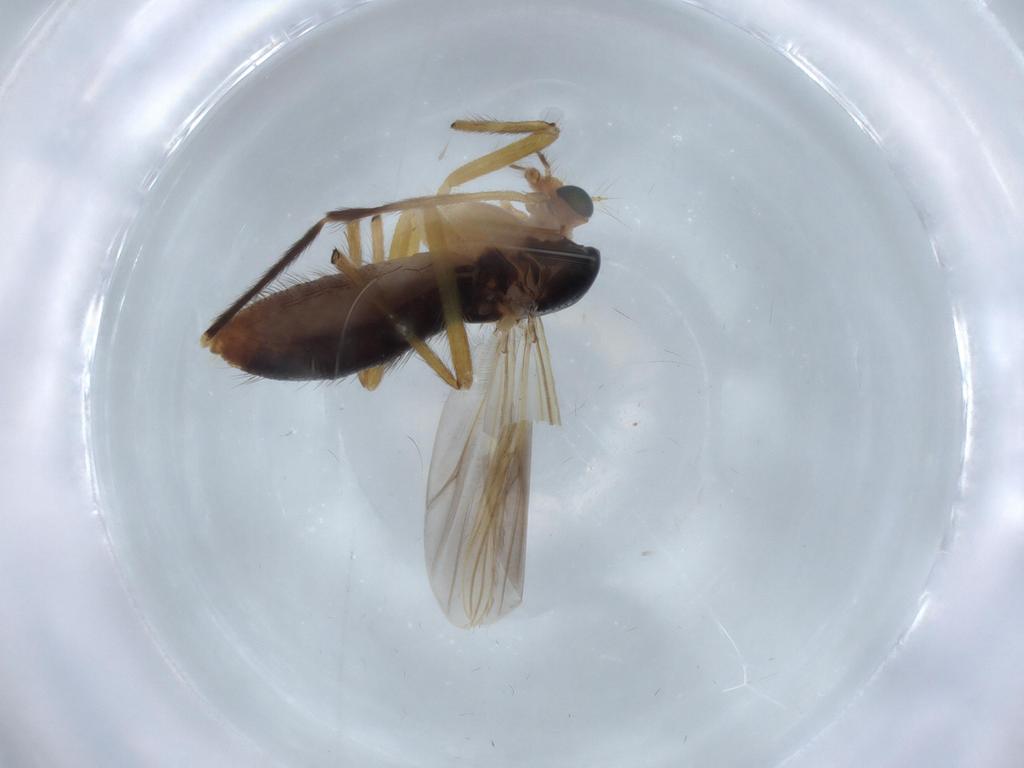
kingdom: Animalia
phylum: Arthropoda
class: Insecta
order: Diptera
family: Chironomidae
